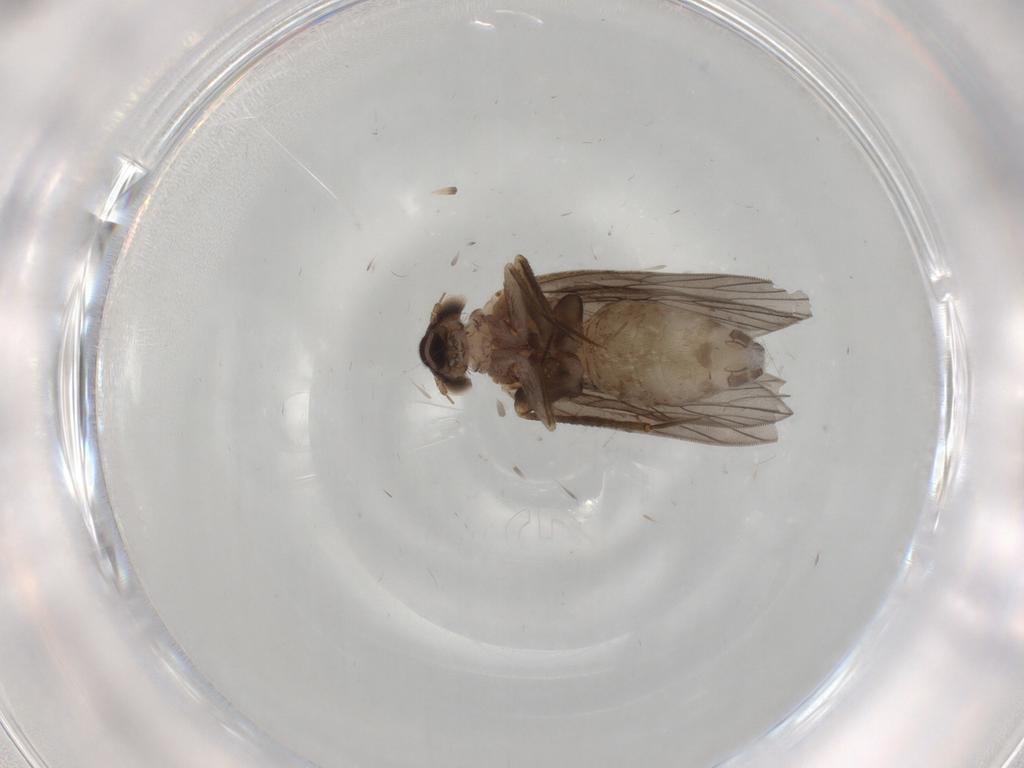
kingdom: Animalia
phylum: Arthropoda
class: Insecta
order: Psocodea
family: Lepidopsocidae
